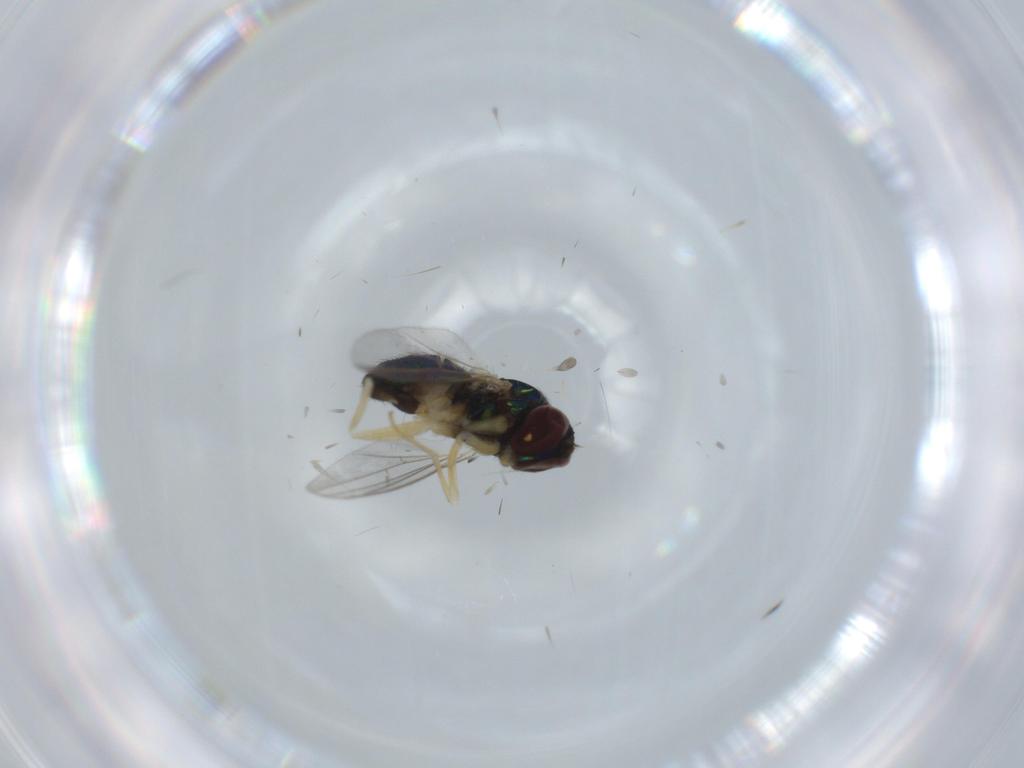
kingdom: Animalia
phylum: Arthropoda
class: Insecta
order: Diptera
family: Dolichopodidae
